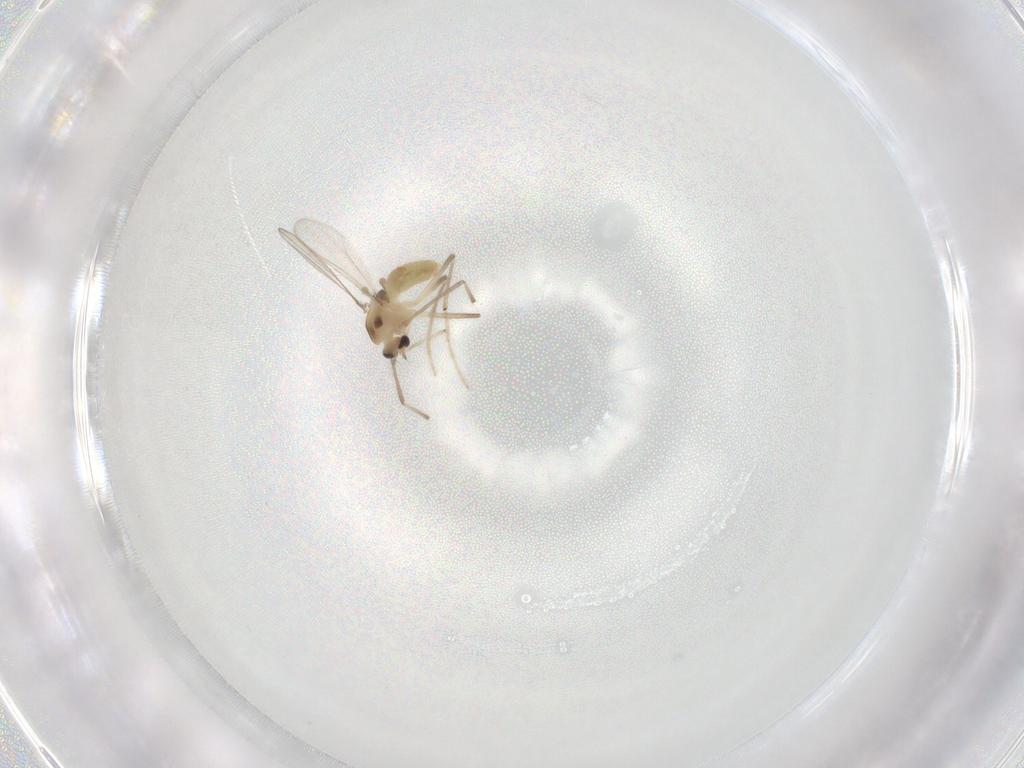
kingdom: Animalia
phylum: Arthropoda
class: Insecta
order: Diptera
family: Chironomidae
